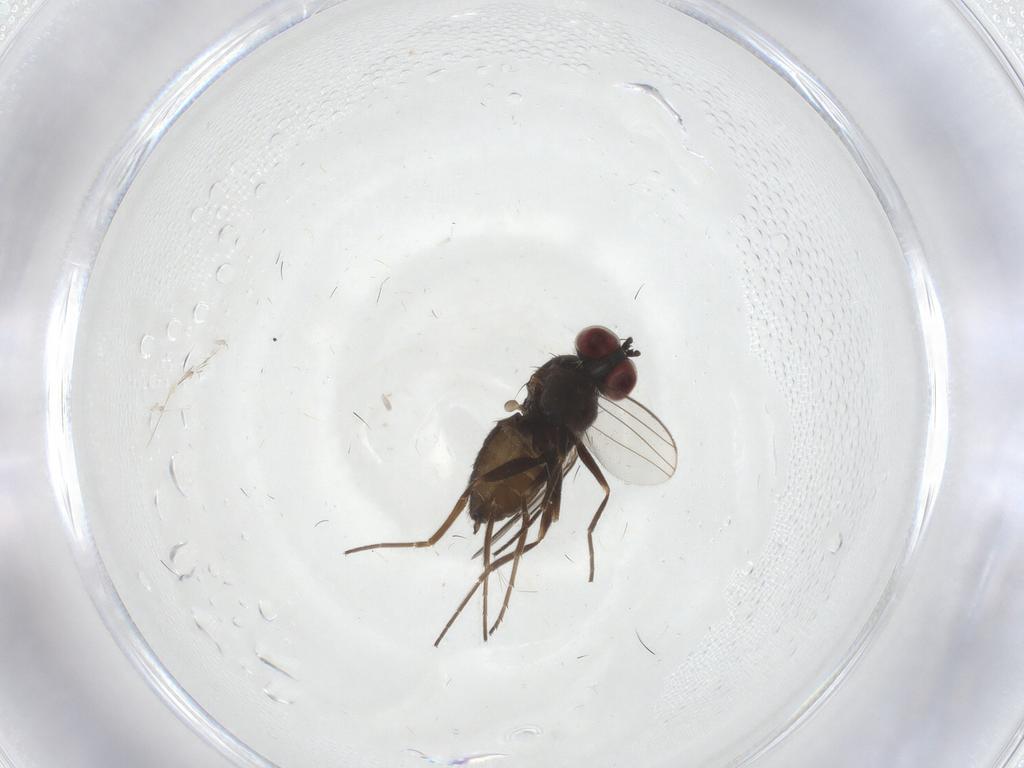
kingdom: Animalia
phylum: Arthropoda
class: Insecta
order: Diptera
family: Dolichopodidae
